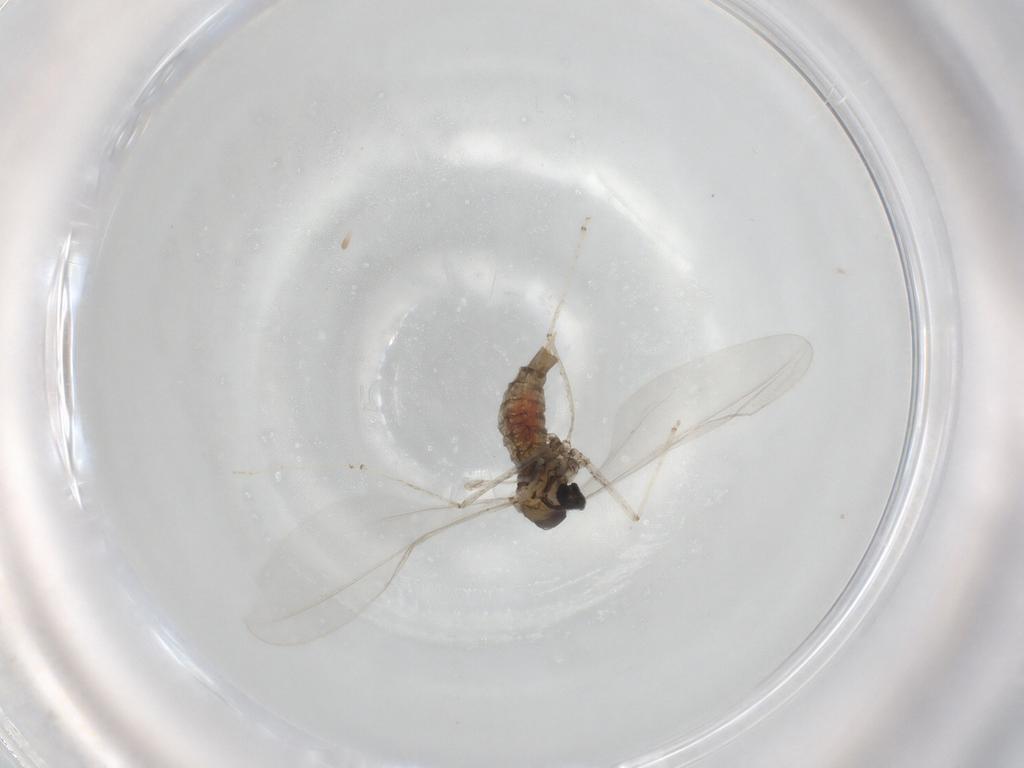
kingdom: Animalia
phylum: Arthropoda
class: Insecta
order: Diptera
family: Cecidomyiidae
